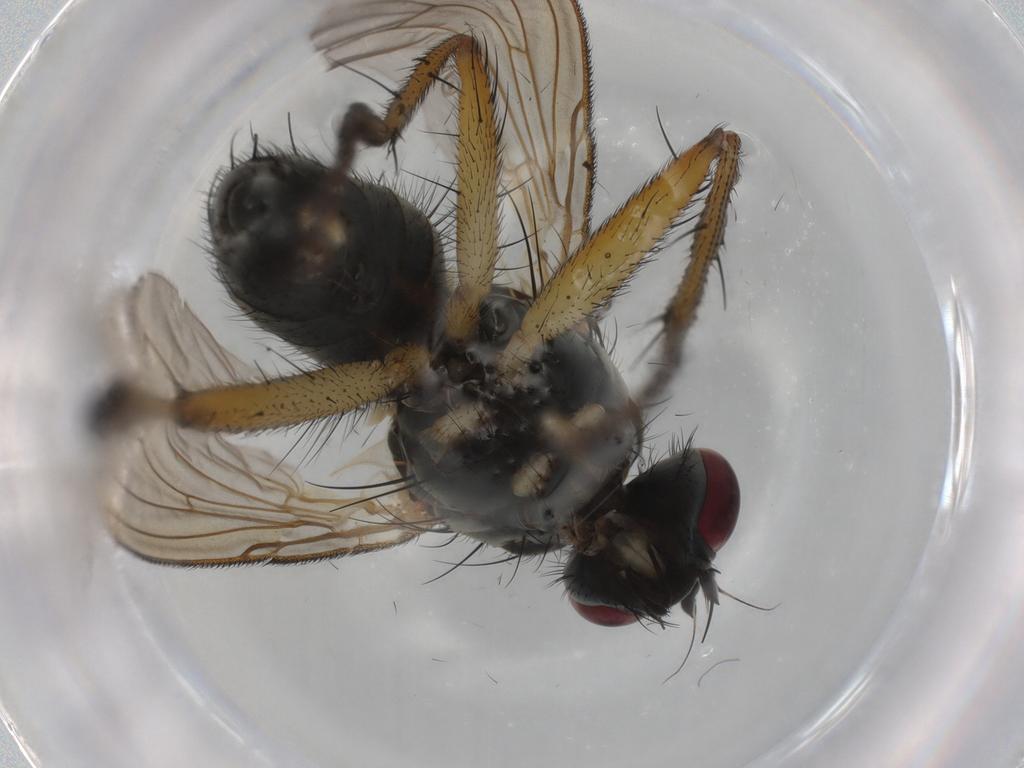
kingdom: Animalia
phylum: Arthropoda
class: Insecta
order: Diptera
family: Muscidae
